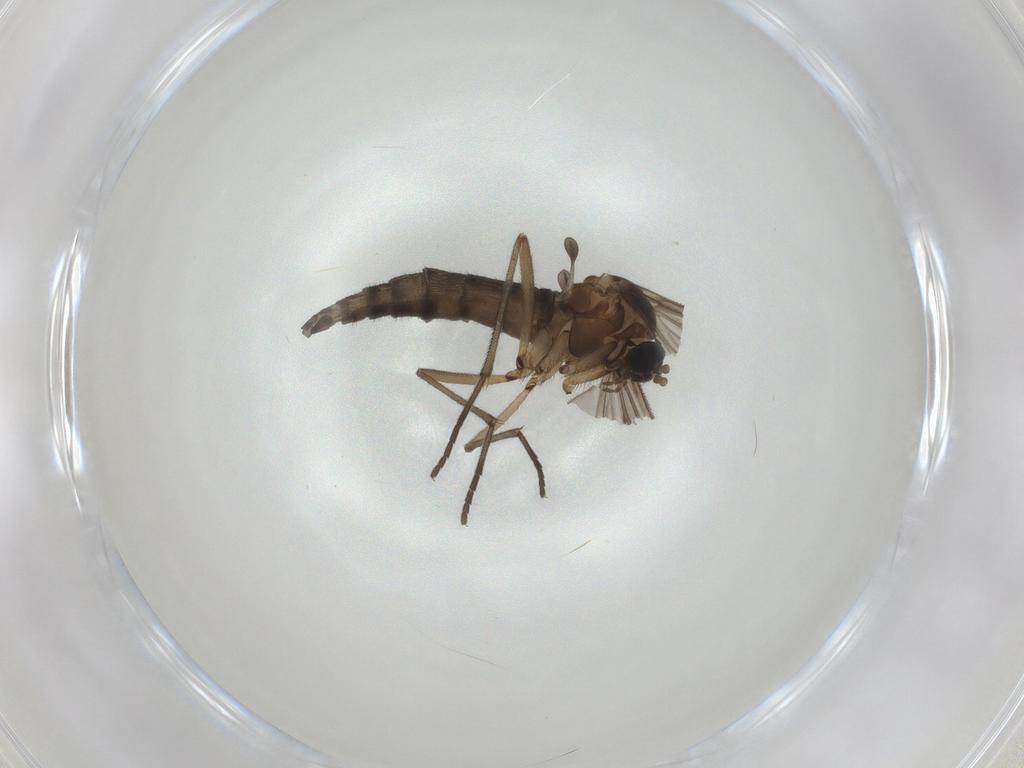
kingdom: Animalia
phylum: Arthropoda
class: Insecta
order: Diptera
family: Sciaridae
